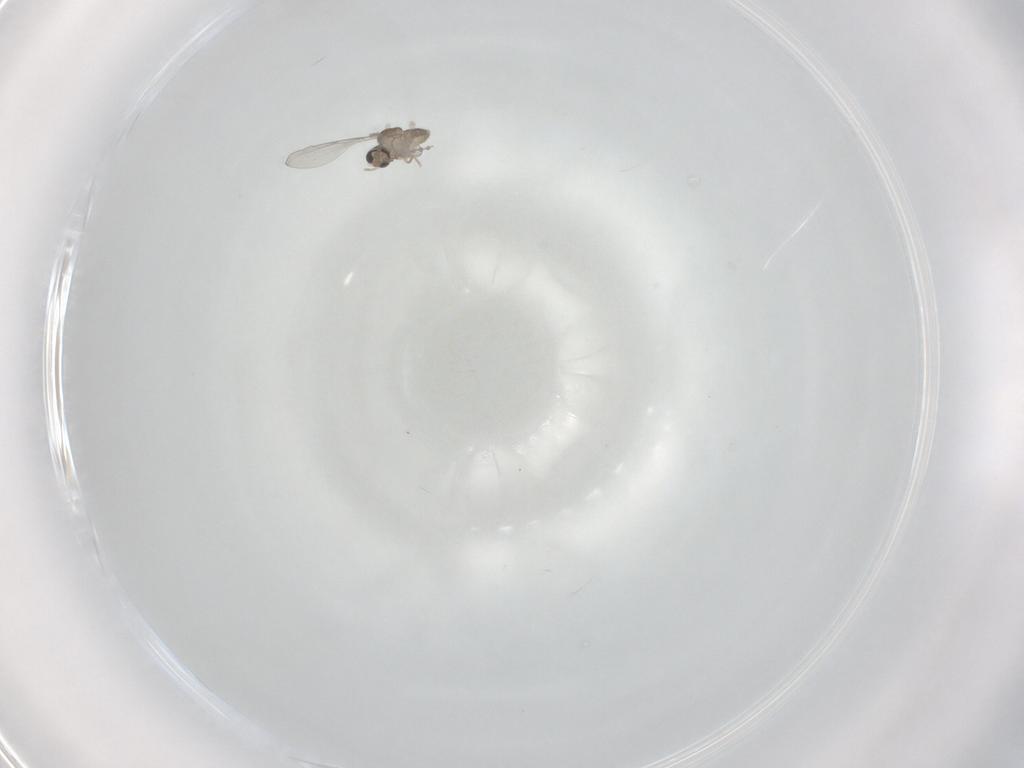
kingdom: Animalia
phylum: Arthropoda
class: Insecta
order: Diptera
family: Cecidomyiidae
